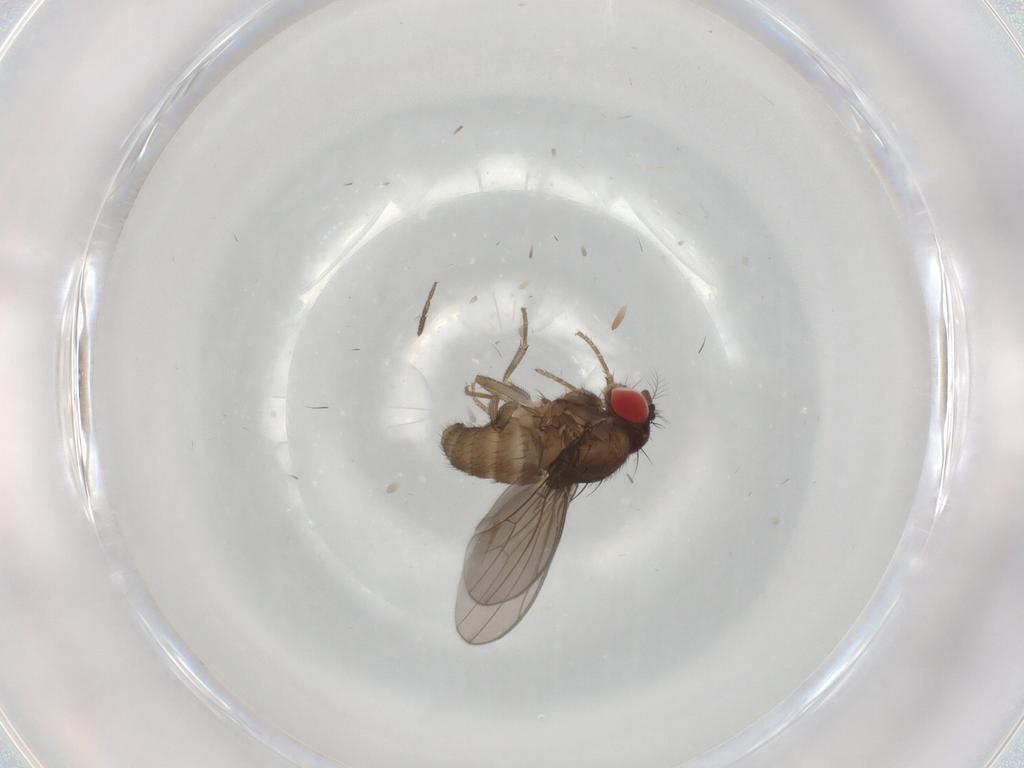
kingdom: Animalia
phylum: Arthropoda
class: Insecta
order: Diptera
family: Drosophilidae
